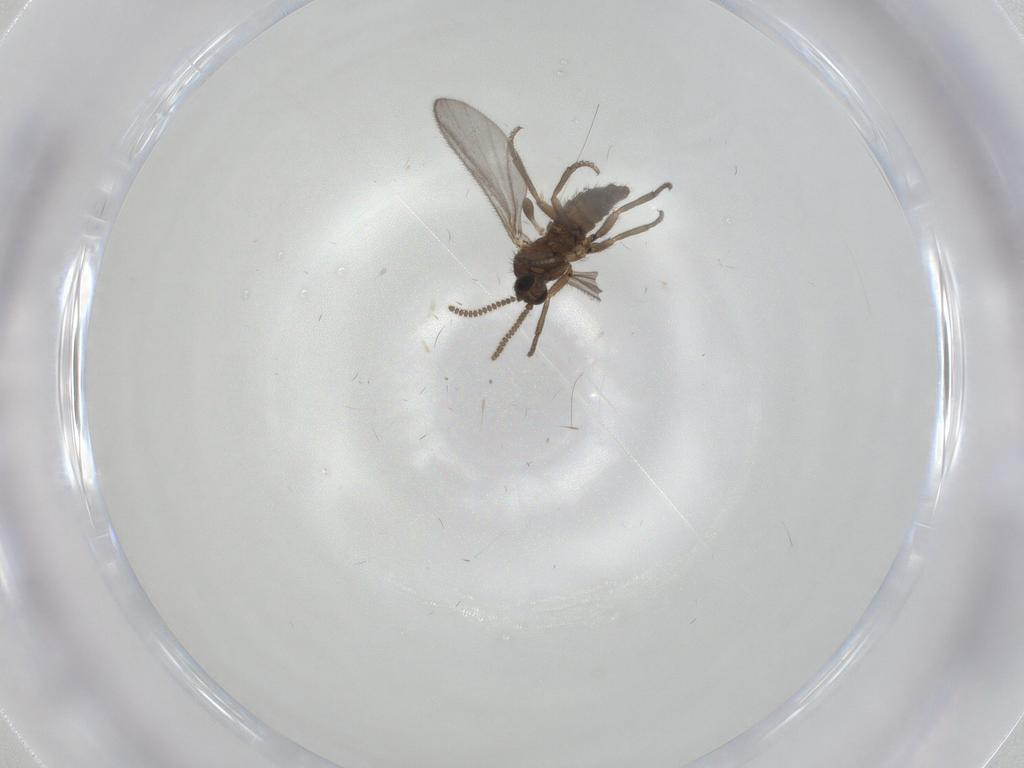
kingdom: Animalia
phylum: Arthropoda
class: Insecta
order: Diptera
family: Sciaridae
